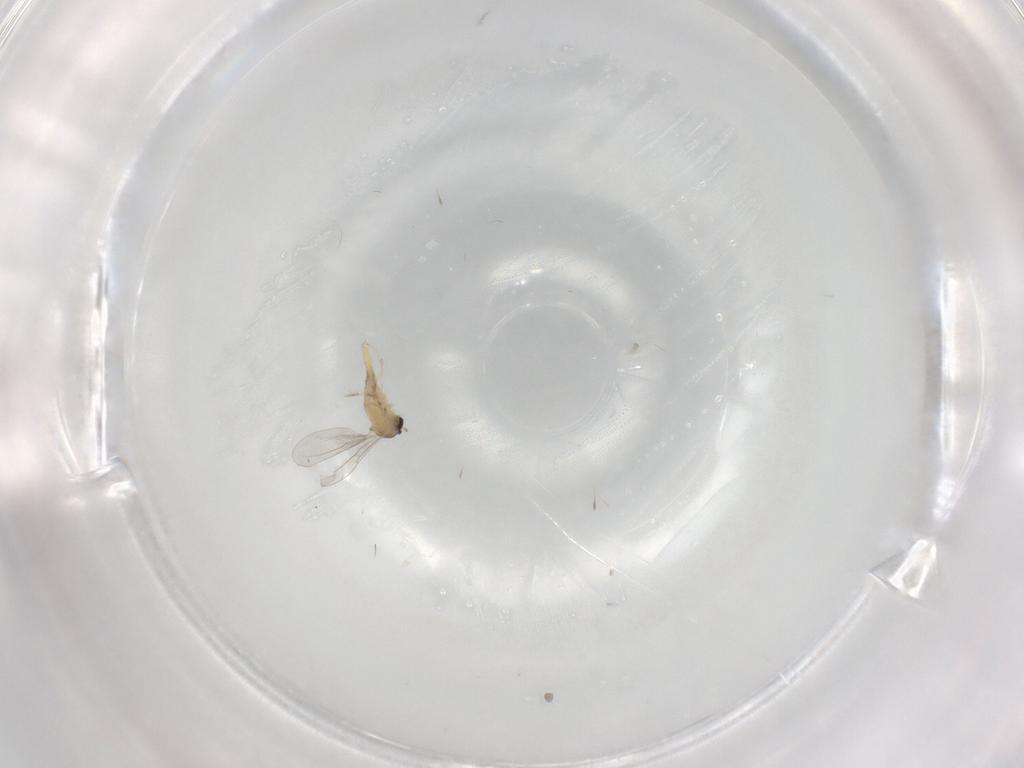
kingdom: Animalia
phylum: Arthropoda
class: Insecta
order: Diptera
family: Cecidomyiidae
